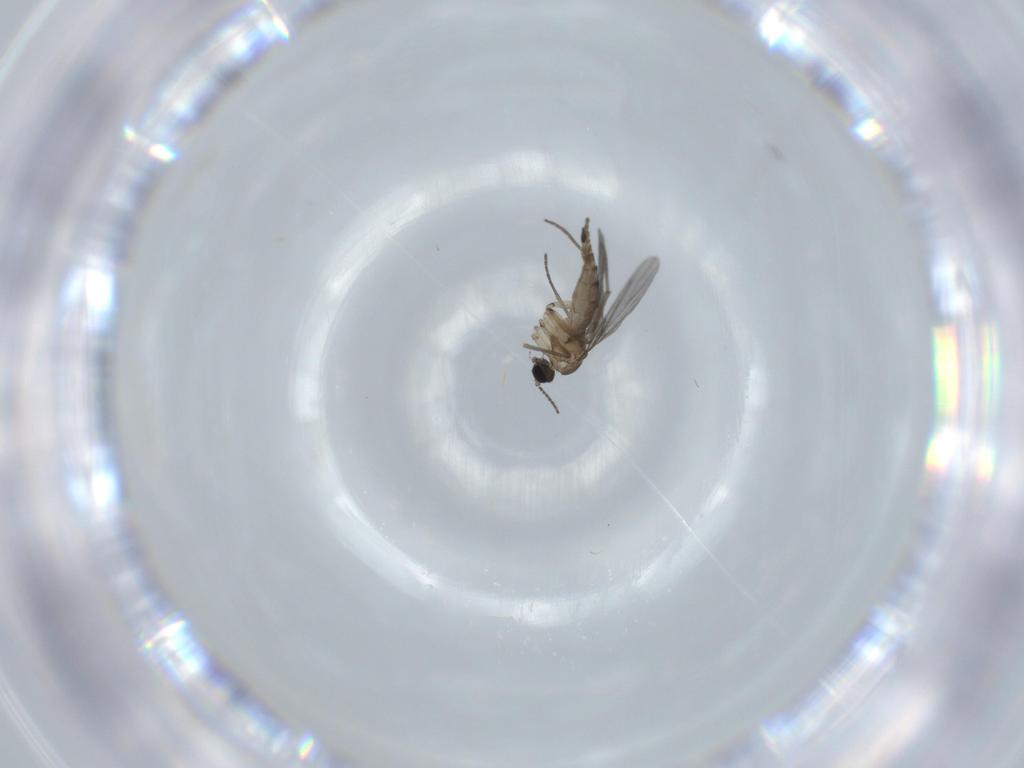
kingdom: Animalia
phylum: Arthropoda
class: Insecta
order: Diptera
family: Sciaridae
